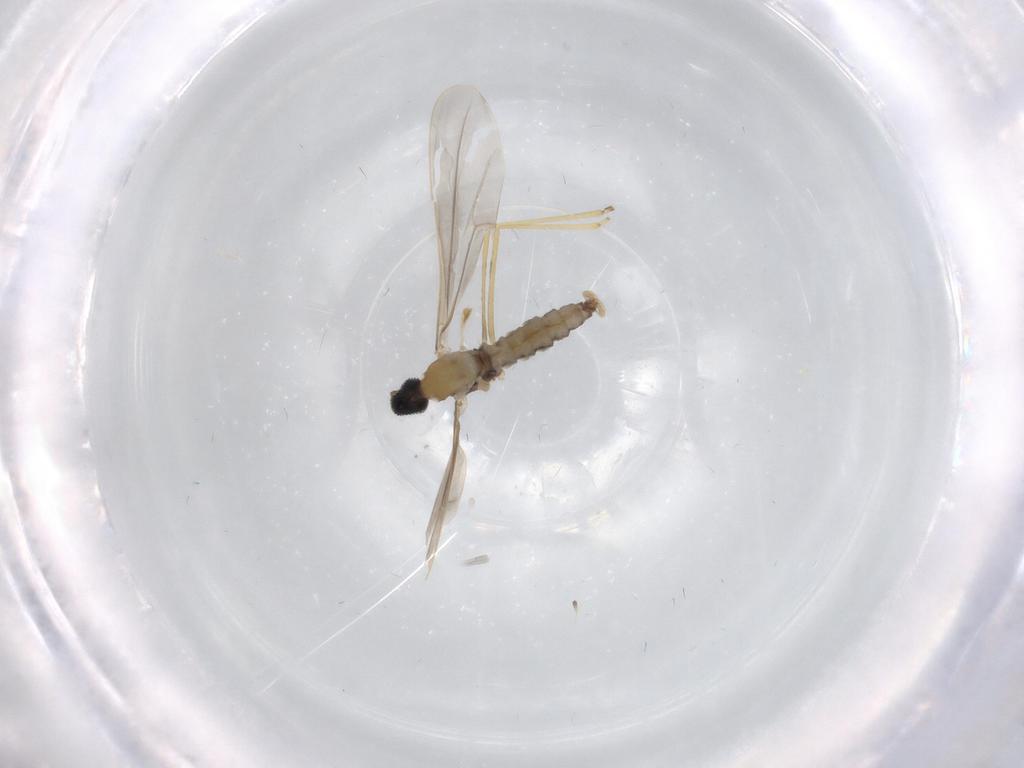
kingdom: Animalia
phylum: Arthropoda
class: Insecta
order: Diptera
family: Cecidomyiidae
